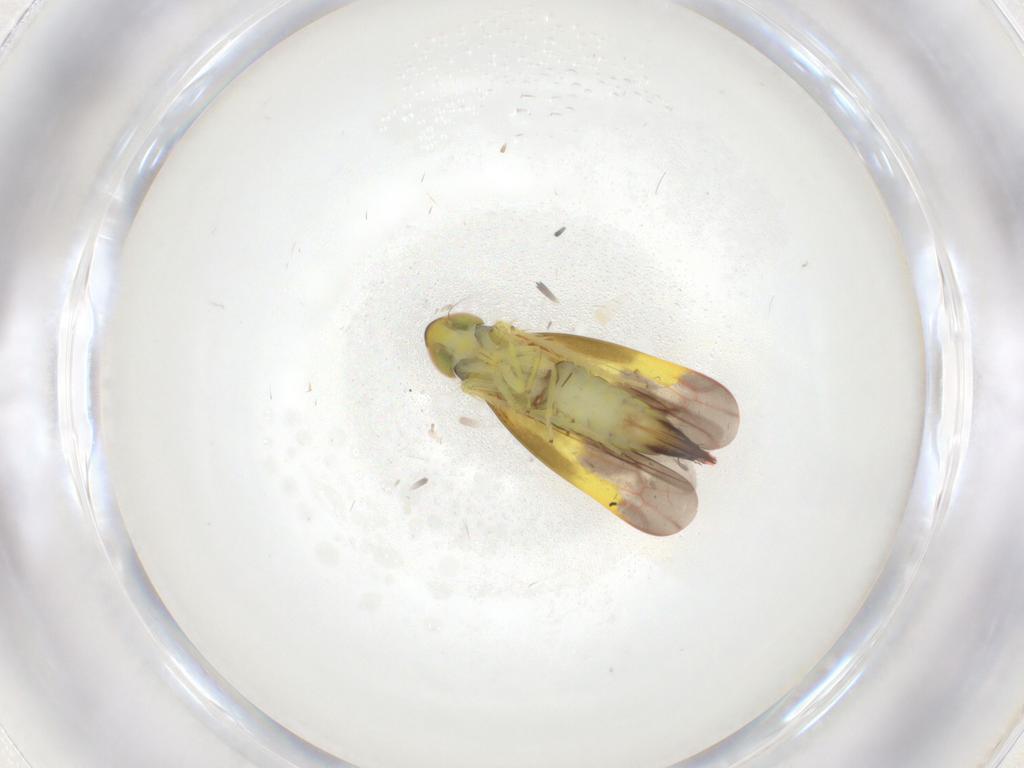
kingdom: Animalia
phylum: Arthropoda
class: Insecta
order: Hemiptera
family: Cicadellidae
